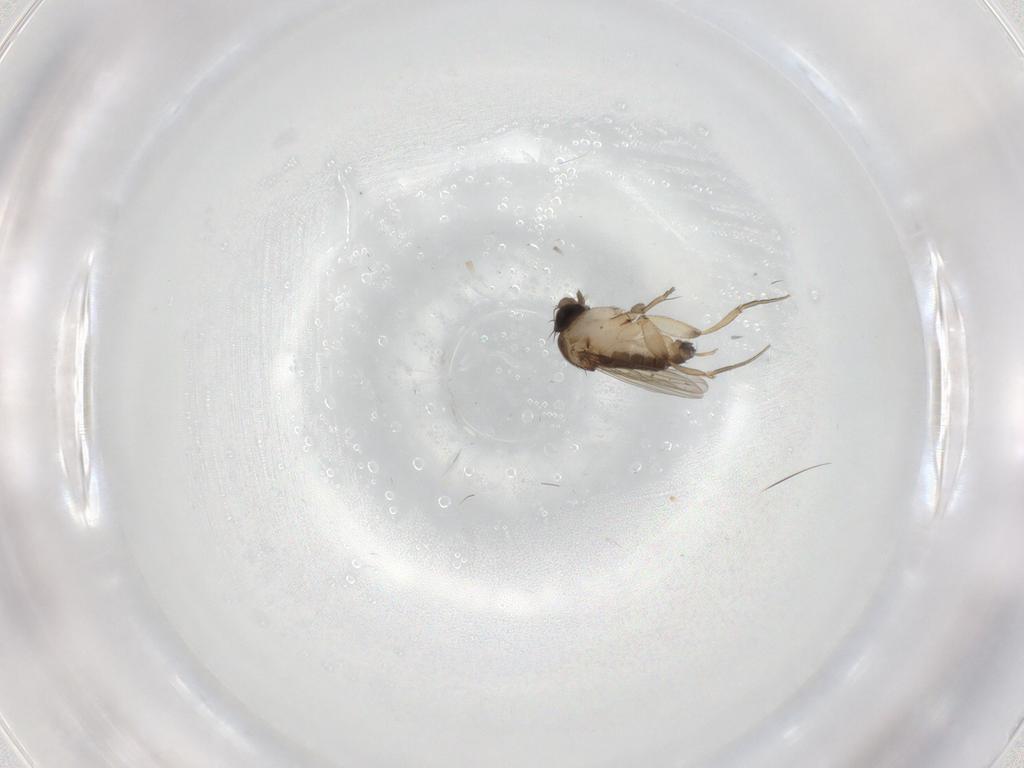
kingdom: Animalia
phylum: Arthropoda
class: Insecta
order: Diptera
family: Phoridae
